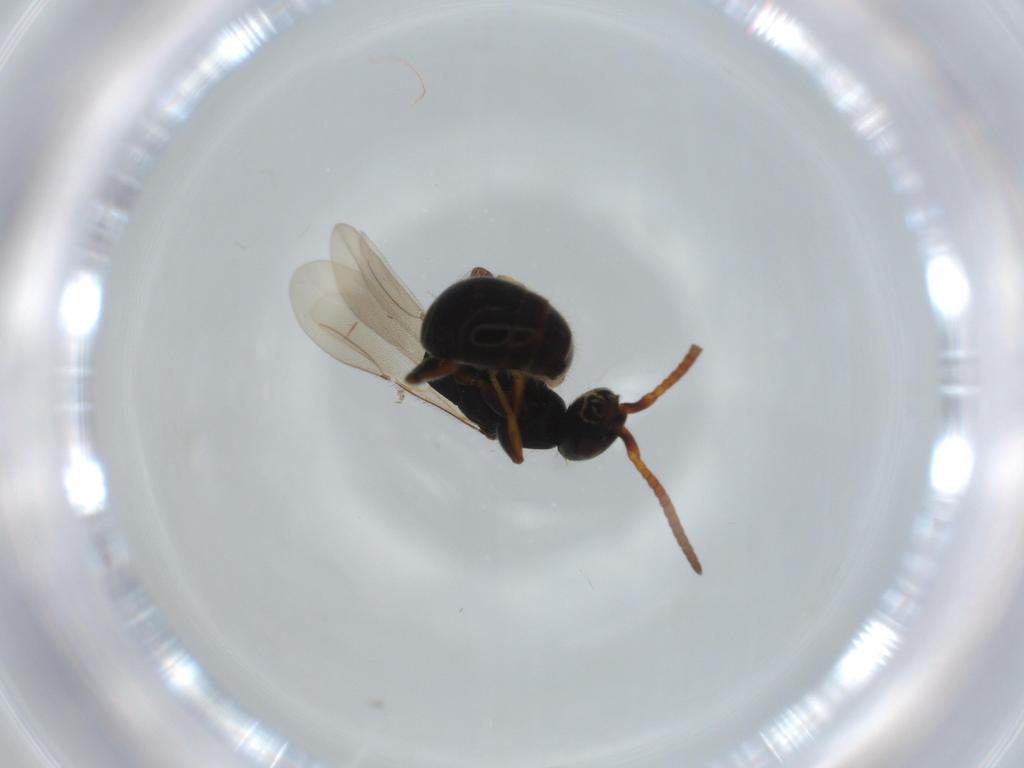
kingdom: Animalia
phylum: Arthropoda
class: Insecta
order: Hymenoptera
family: Bethylidae
